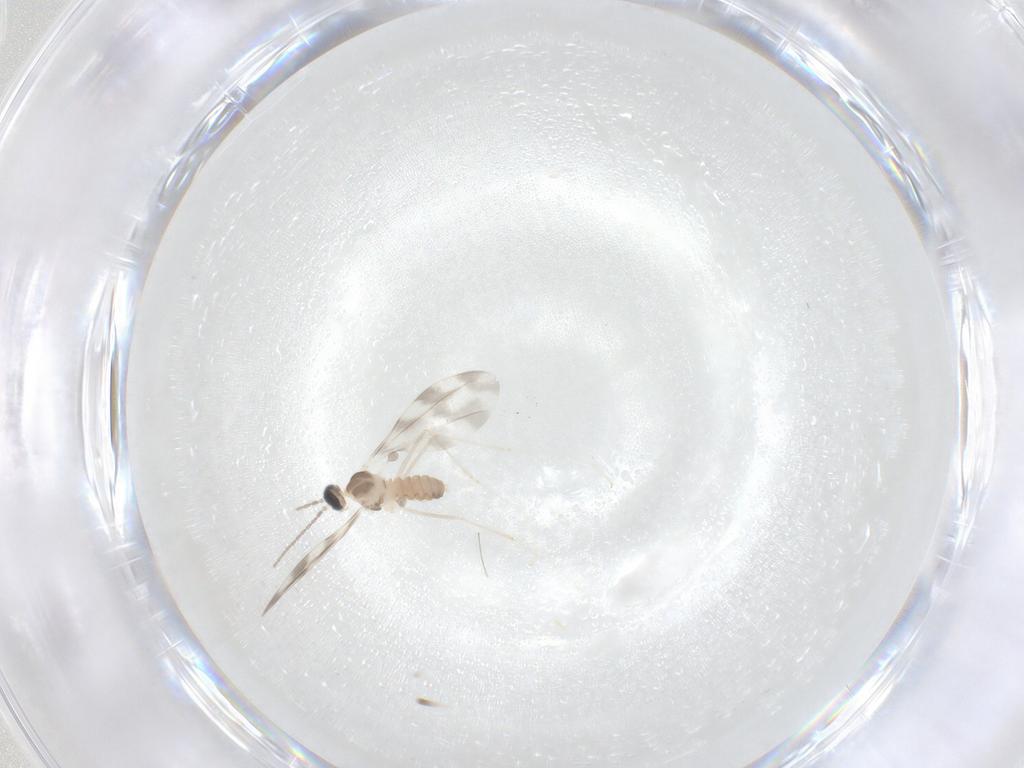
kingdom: Animalia
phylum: Arthropoda
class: Insecta
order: Diptera
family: Cecidomyiidae
